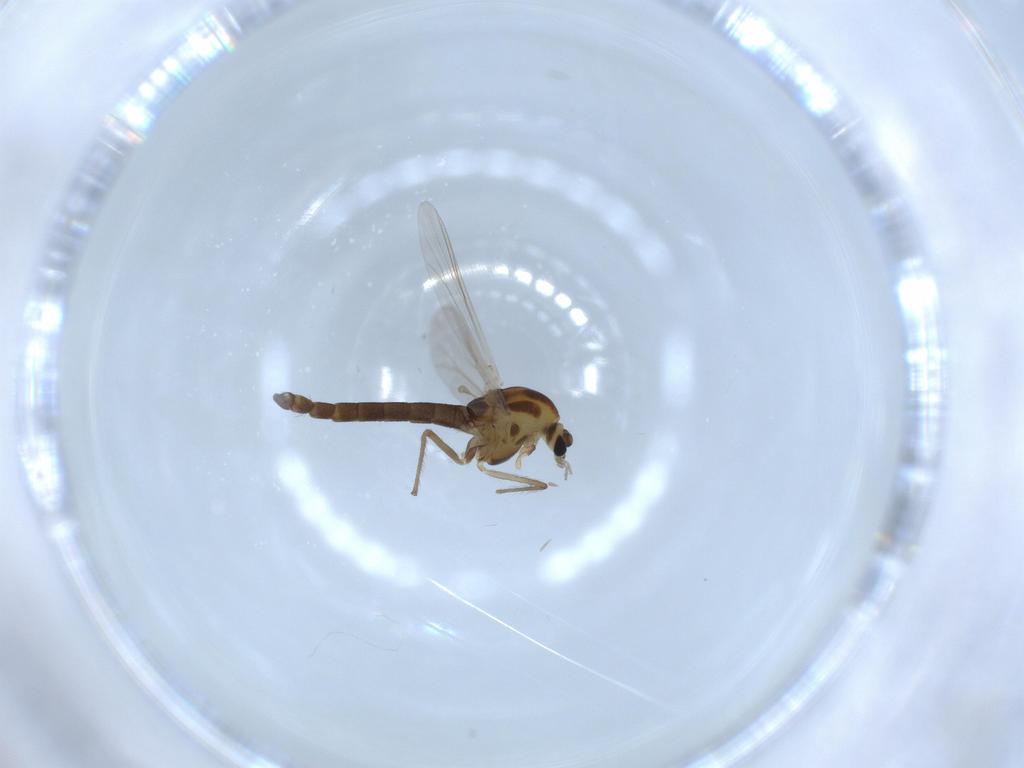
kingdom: Animalia
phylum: Arthropoda
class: Insecta
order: Diptera
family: Chironomidae
